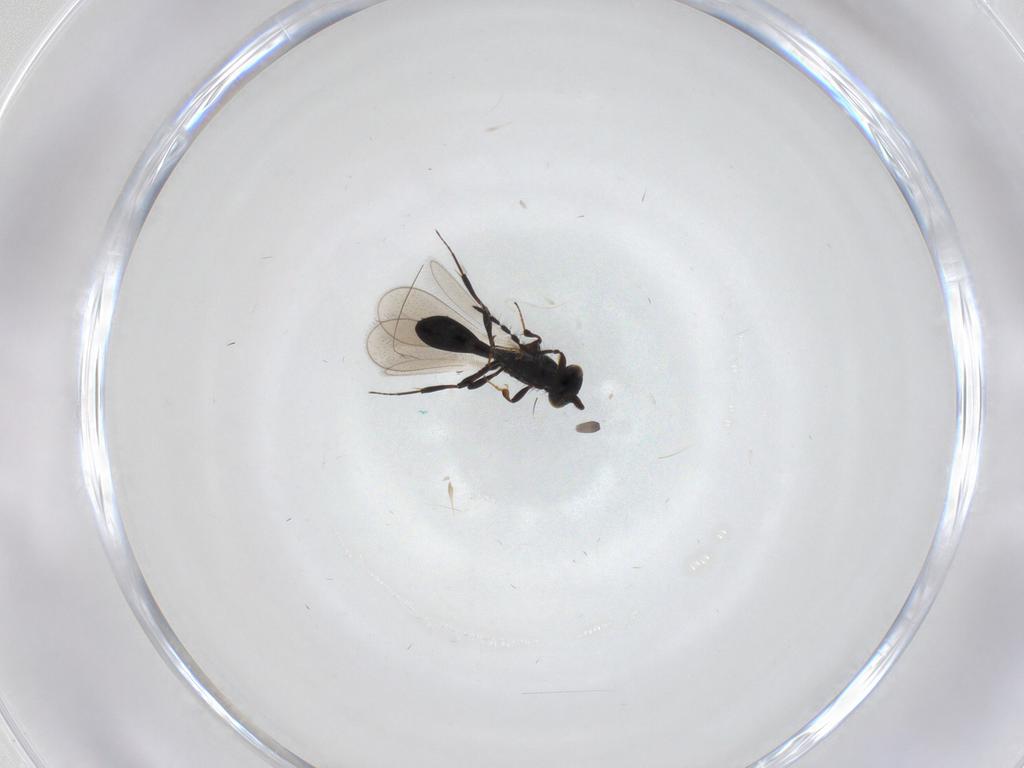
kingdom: Animalia
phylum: Arthropoda
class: Insecta
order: Hymenoptera
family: Platygastridae
